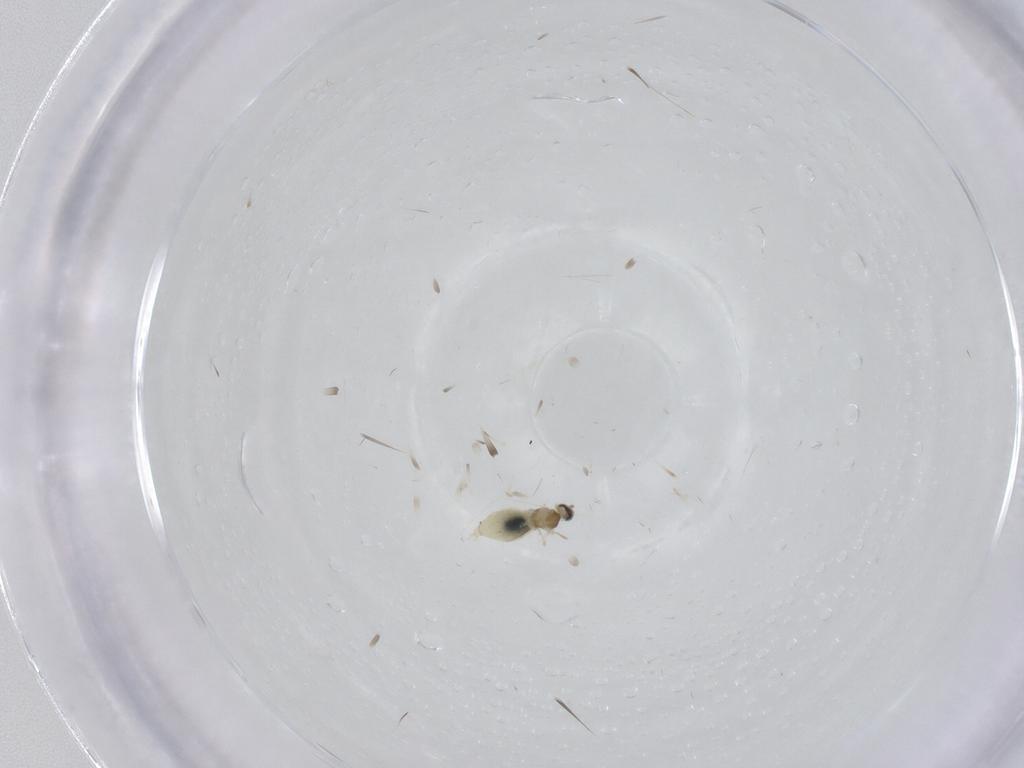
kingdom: Animalia
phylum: Arthropoda
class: Insecta
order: Diptera
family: Cecidomyiidae
